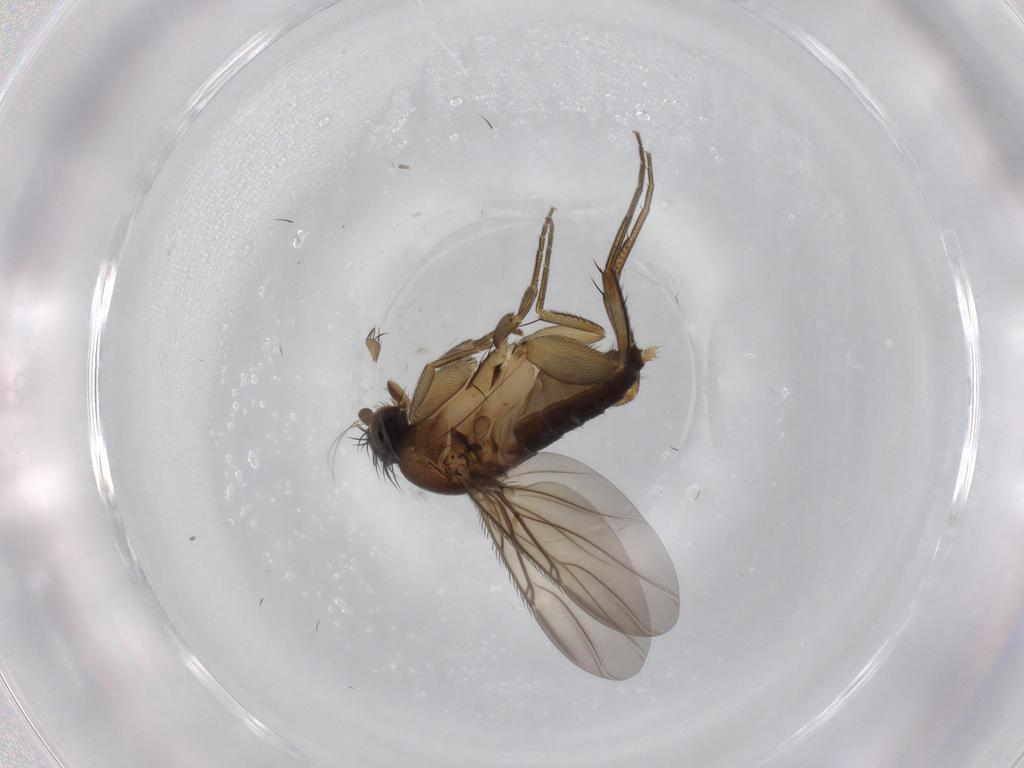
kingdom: Animalia
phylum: Arthropoda
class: Insecta
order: Diptera
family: Phoridae
